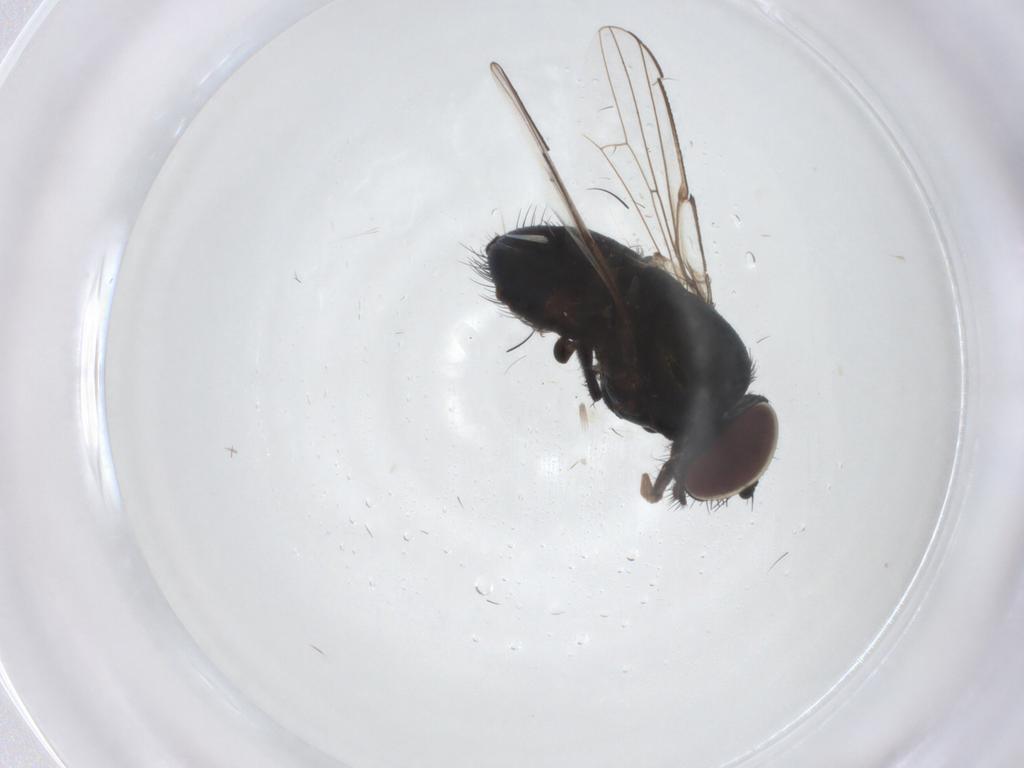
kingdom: Animalia
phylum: Arthropoda
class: Insecta
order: Diptera
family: Milichiidae
